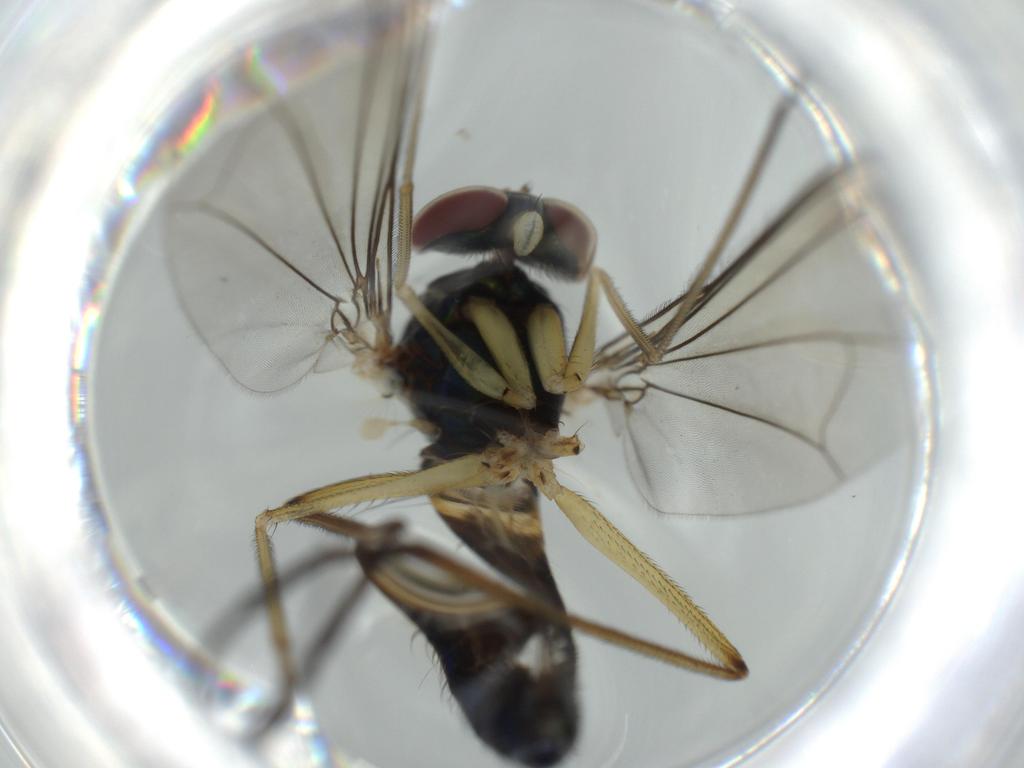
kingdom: Animalia
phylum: Arthropoda
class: Insecta
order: Diptera
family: Dolichopodidae
